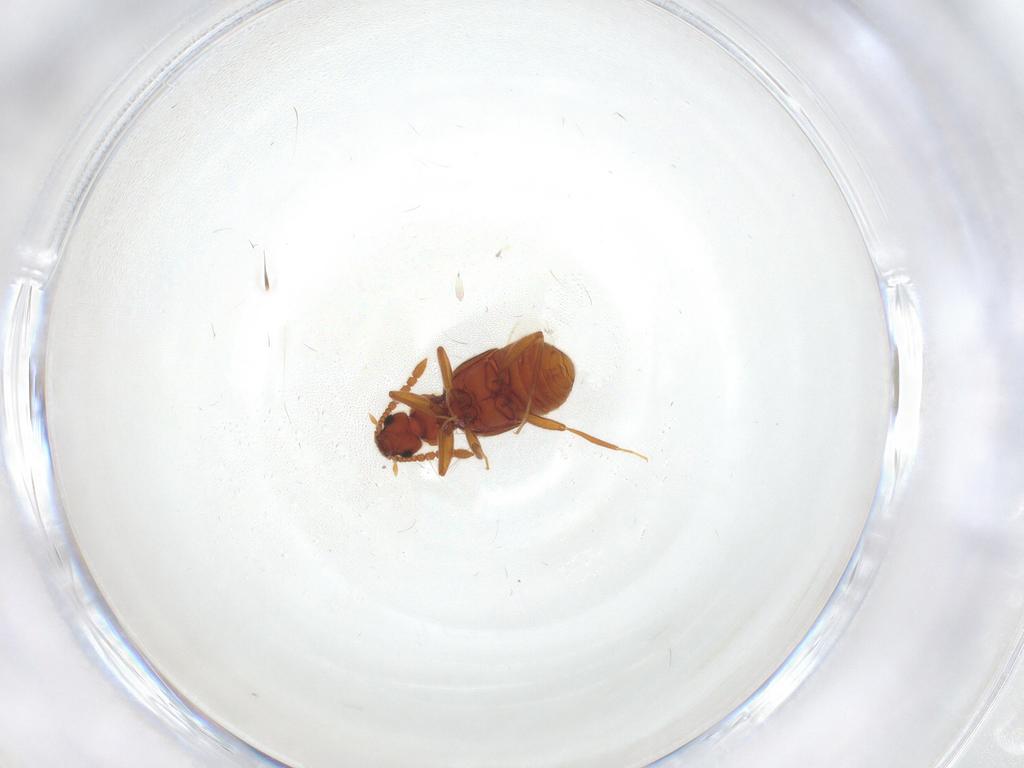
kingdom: Animalia
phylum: Arthropoda
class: Insecta
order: Coleoptera
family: Staphylinidae
